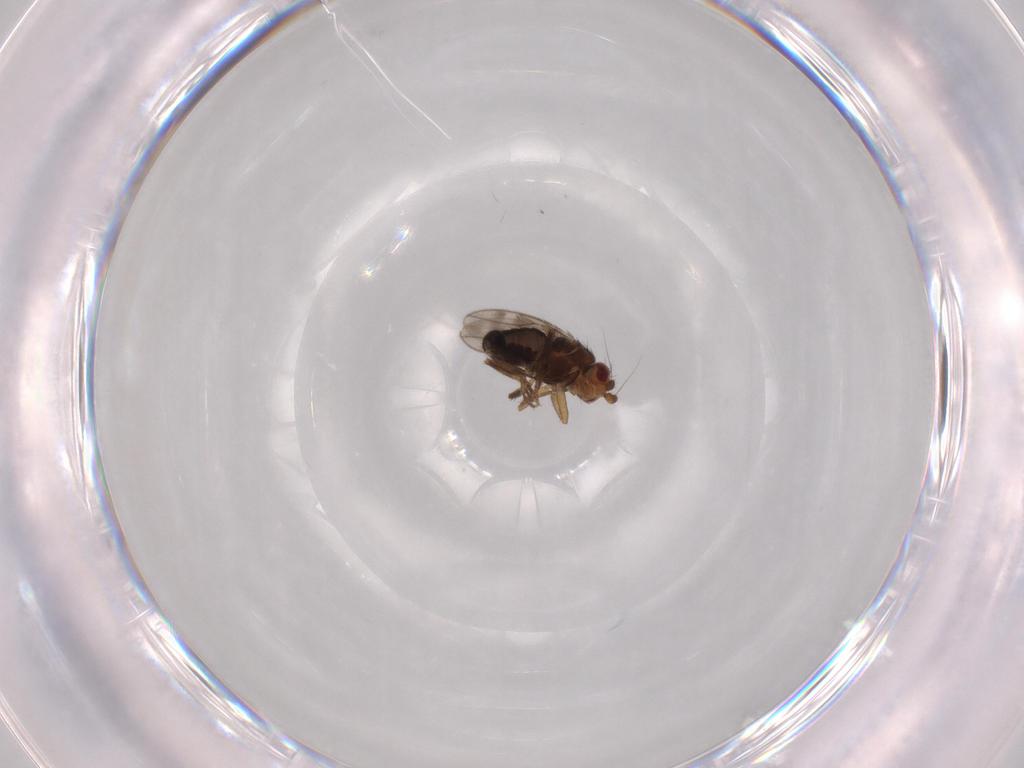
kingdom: Animalia
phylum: Arthropoda
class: Insecta
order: Diptera
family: Sphaeroceridae
